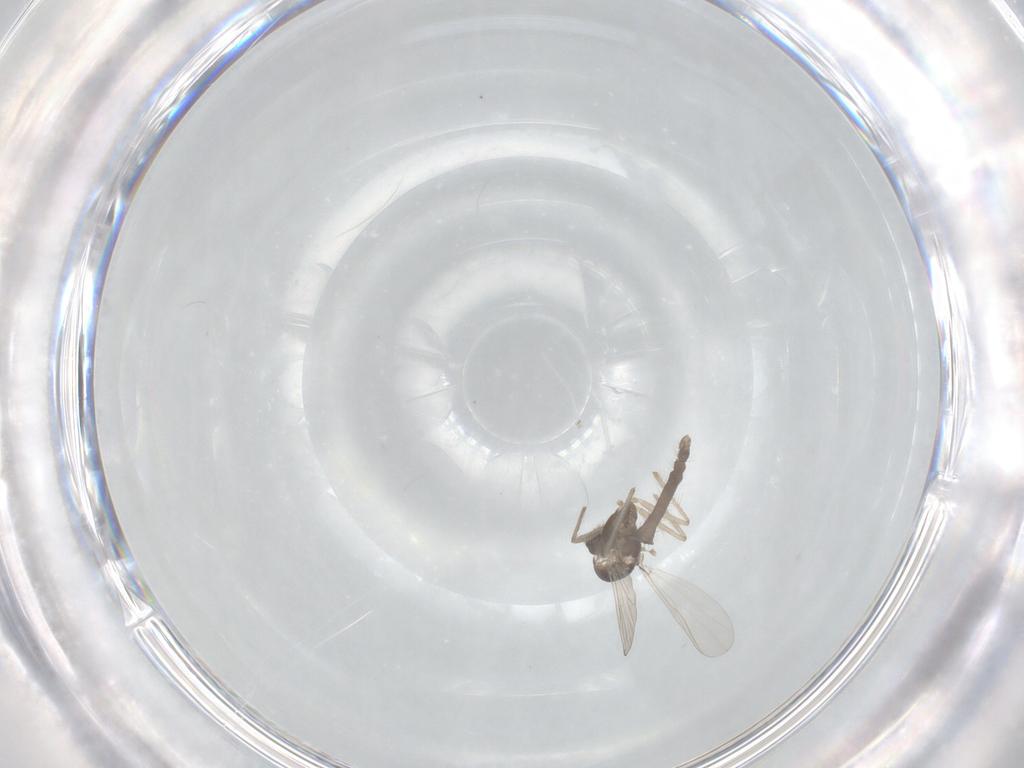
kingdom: Animalia
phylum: Arthropoda
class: Insecta
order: Diptera
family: Chironomidae
